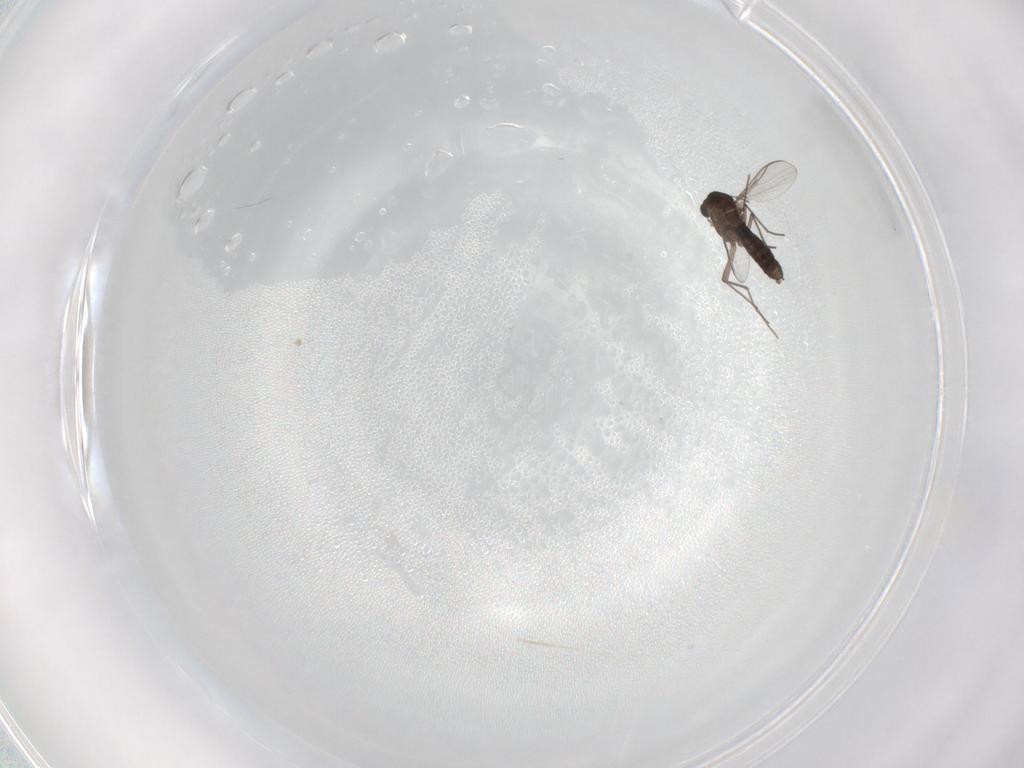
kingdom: Animalia
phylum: Arthropoda
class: Insecta
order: Diptera
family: Chironomidae
